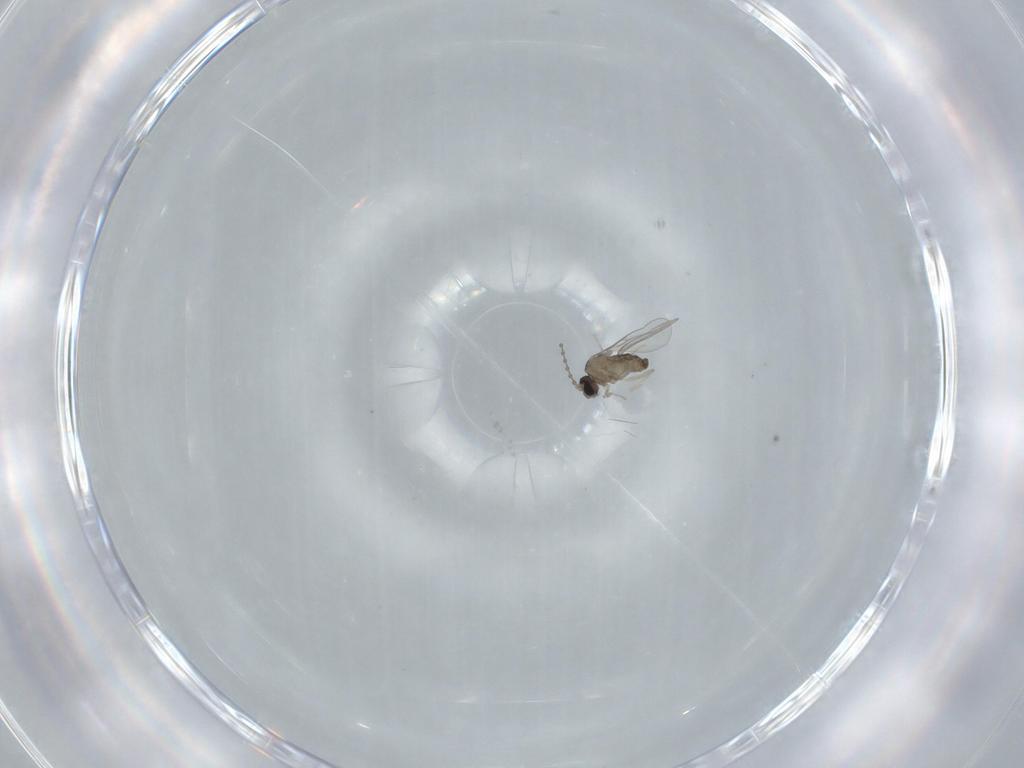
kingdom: Animalia
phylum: Arthropoda
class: Insecta
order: Diptera
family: Cecidomyiidae
